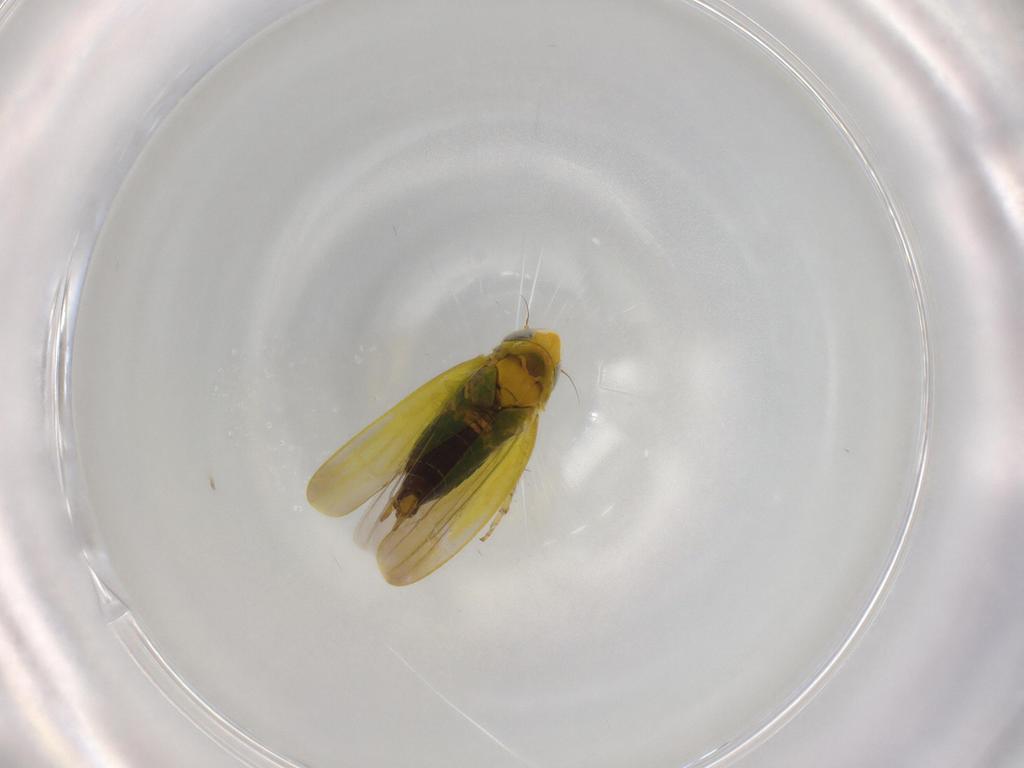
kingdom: Animalia
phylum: Arthropoda
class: Insecta
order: Hemiptera
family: Cicadellidae
